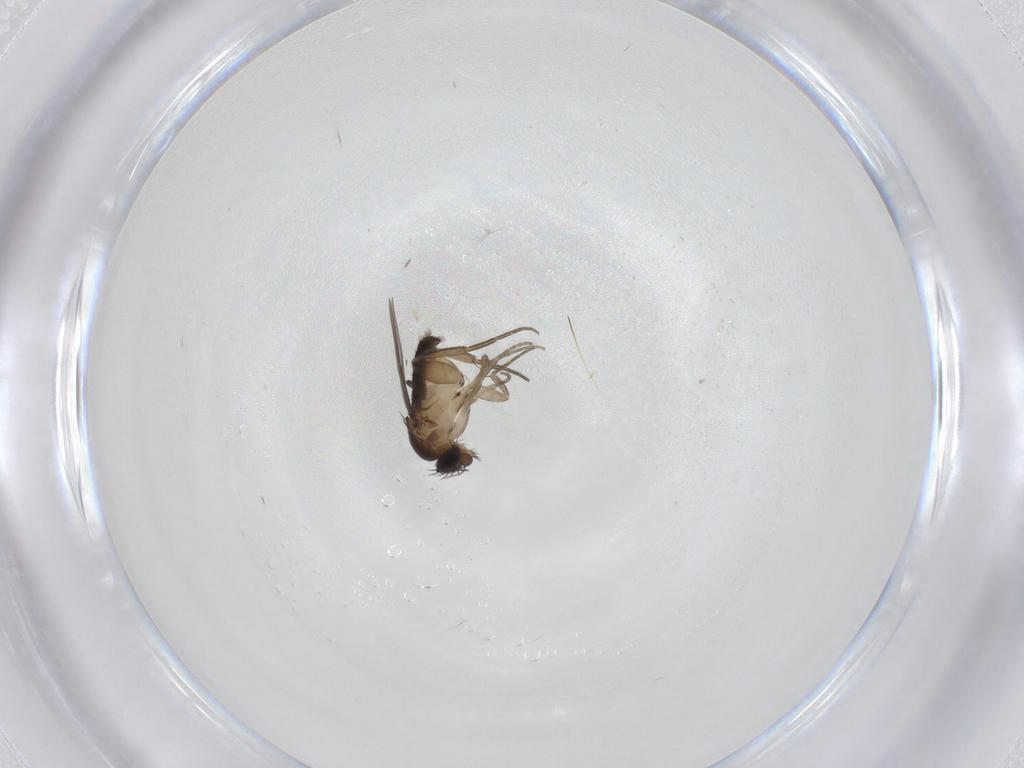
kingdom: Animalia
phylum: Arthropoda
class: Insecta
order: Diptera
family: Phoridae
